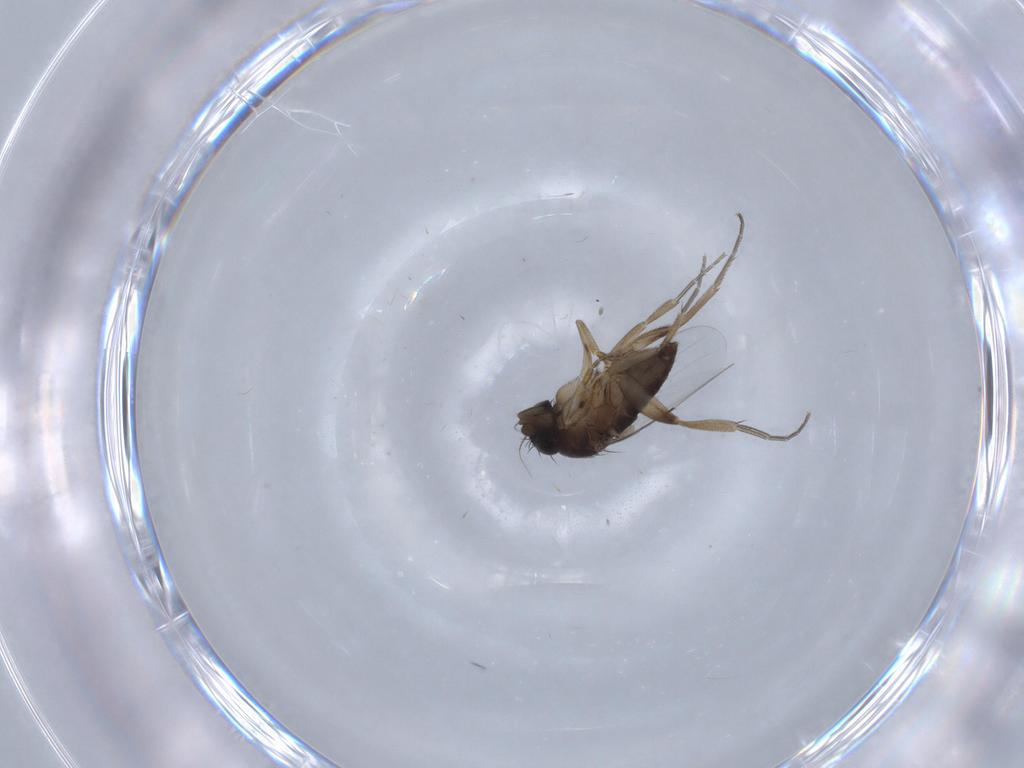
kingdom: Animalia
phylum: Arthropoda
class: Insecta
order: Diptera
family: Phoridae
